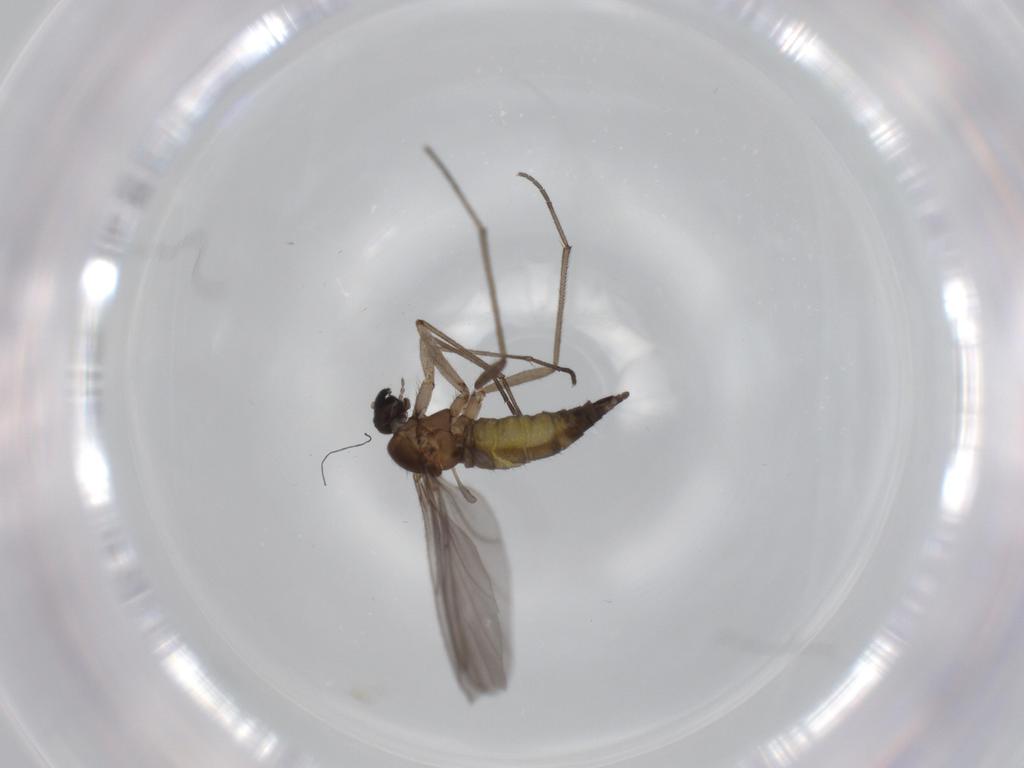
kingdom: Animalia
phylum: Arthropoda
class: Insecta
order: Diptera
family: Sciaridae
